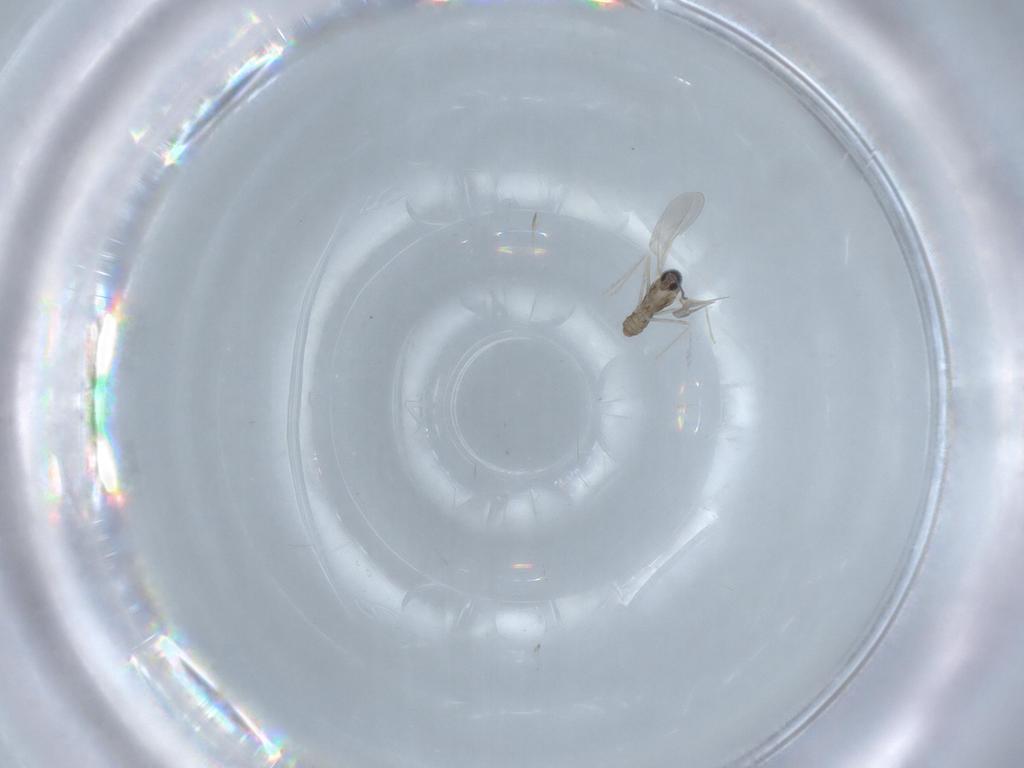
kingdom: Animalia
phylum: Arthropoda
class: Insecta
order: Diptera
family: Cecidomyiidae
